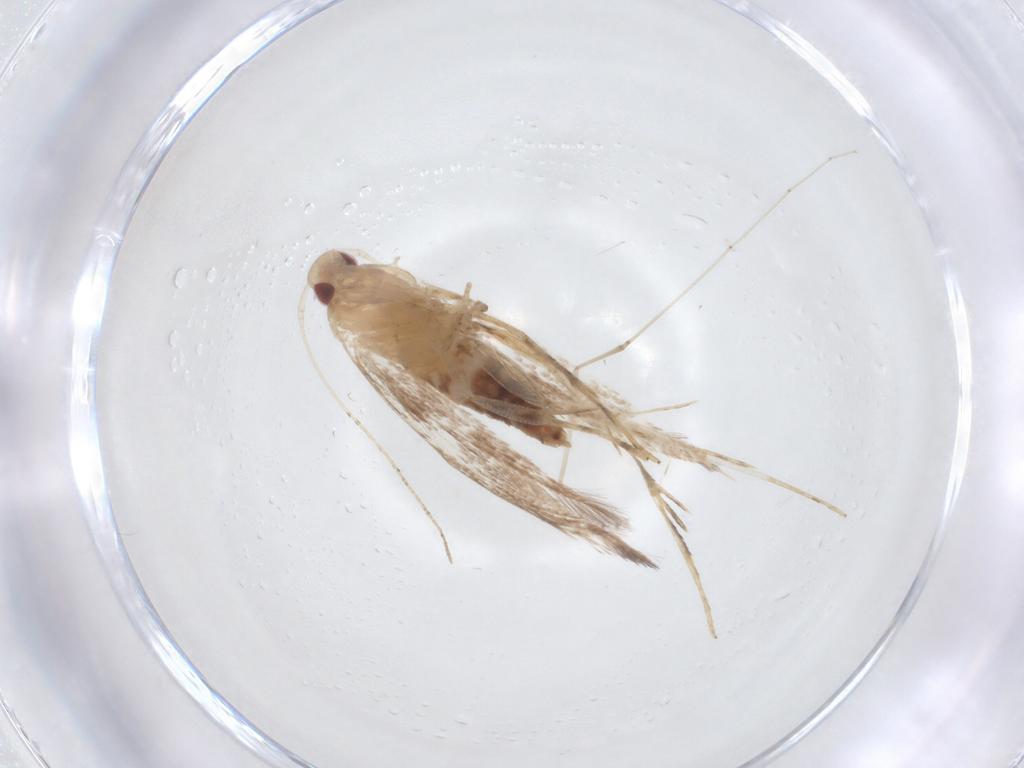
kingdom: Animalia
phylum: Arthropoda
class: Insecta
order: Lepidoptera
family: Cosmopterigidae
